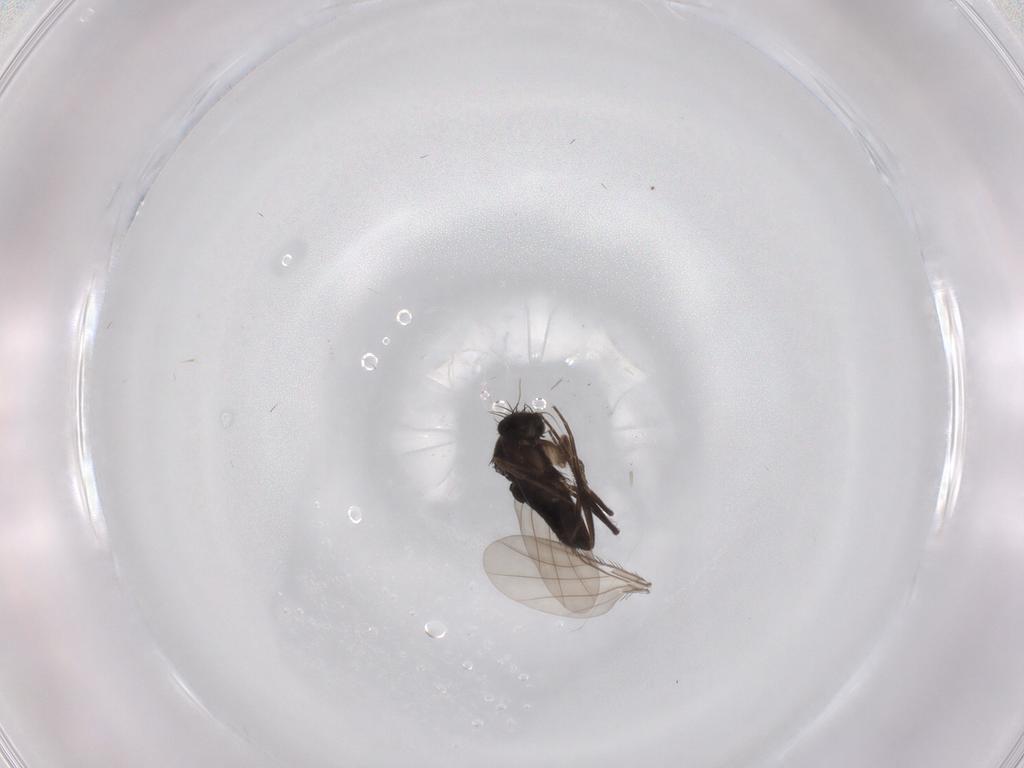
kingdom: Animalia
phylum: Arthropoda
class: Insecta
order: Diptera
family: Phoridae
